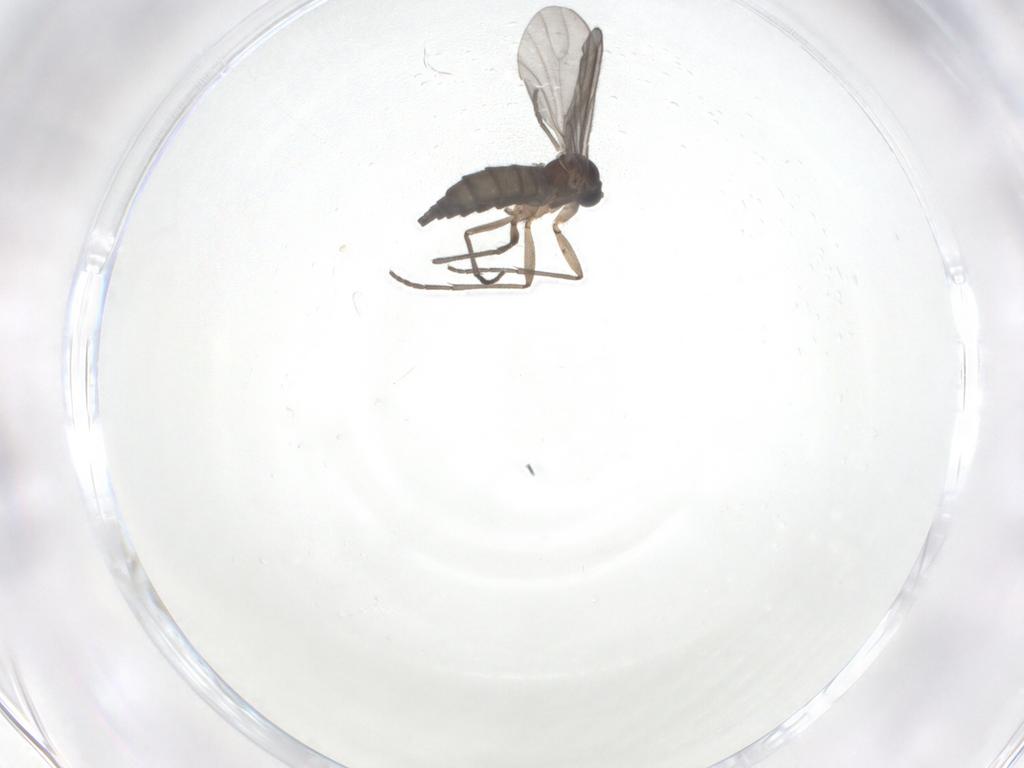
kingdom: Animalia
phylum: Arthropoda
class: Insecta
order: Diptera
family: Sciaridae
